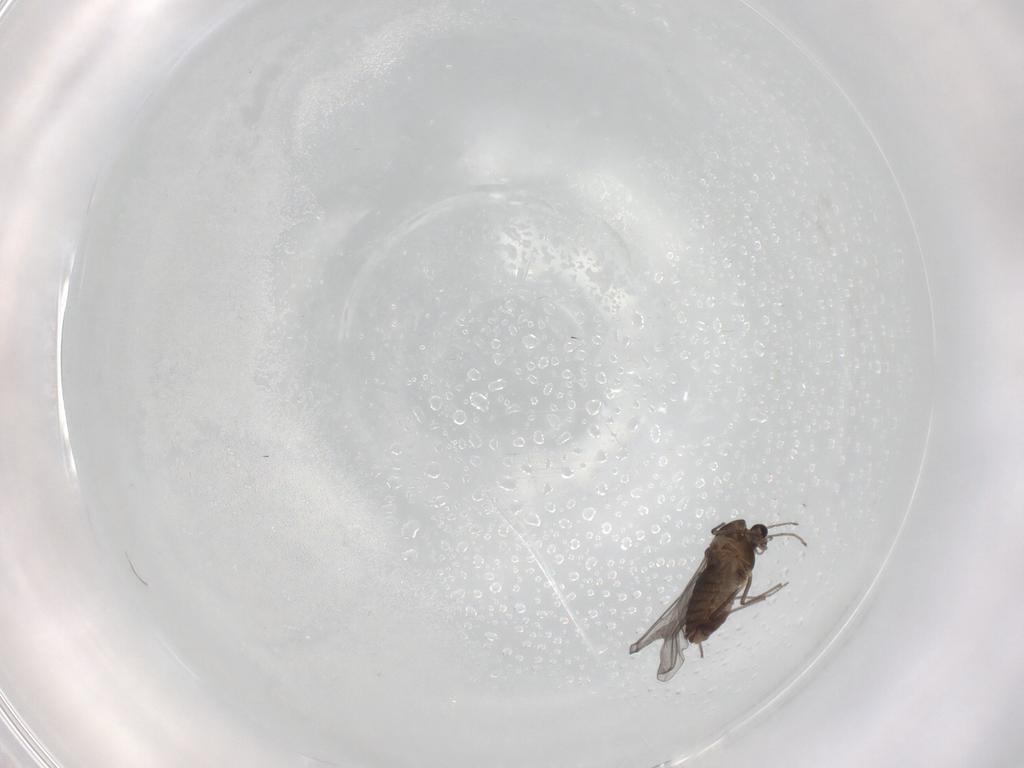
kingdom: Animalia
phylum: Arthropoda
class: Insecta
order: Diptera
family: Chironomidae
